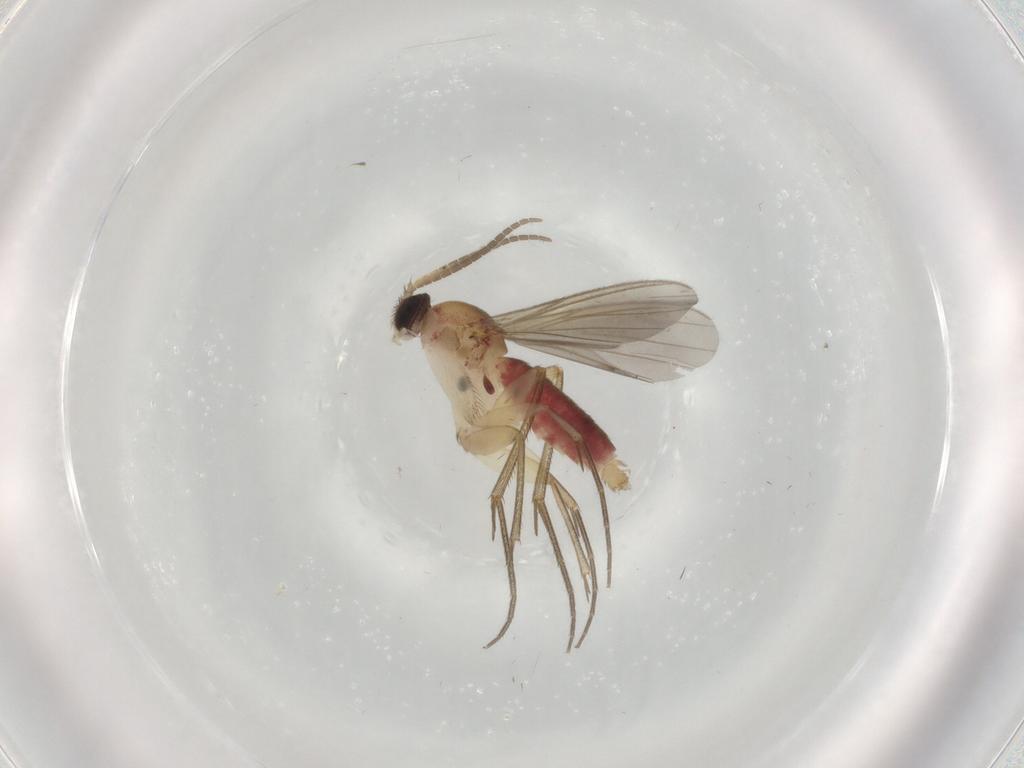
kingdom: Animalia
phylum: Arthropoda
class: Insecta
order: Diptera
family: Mycetophilidae
